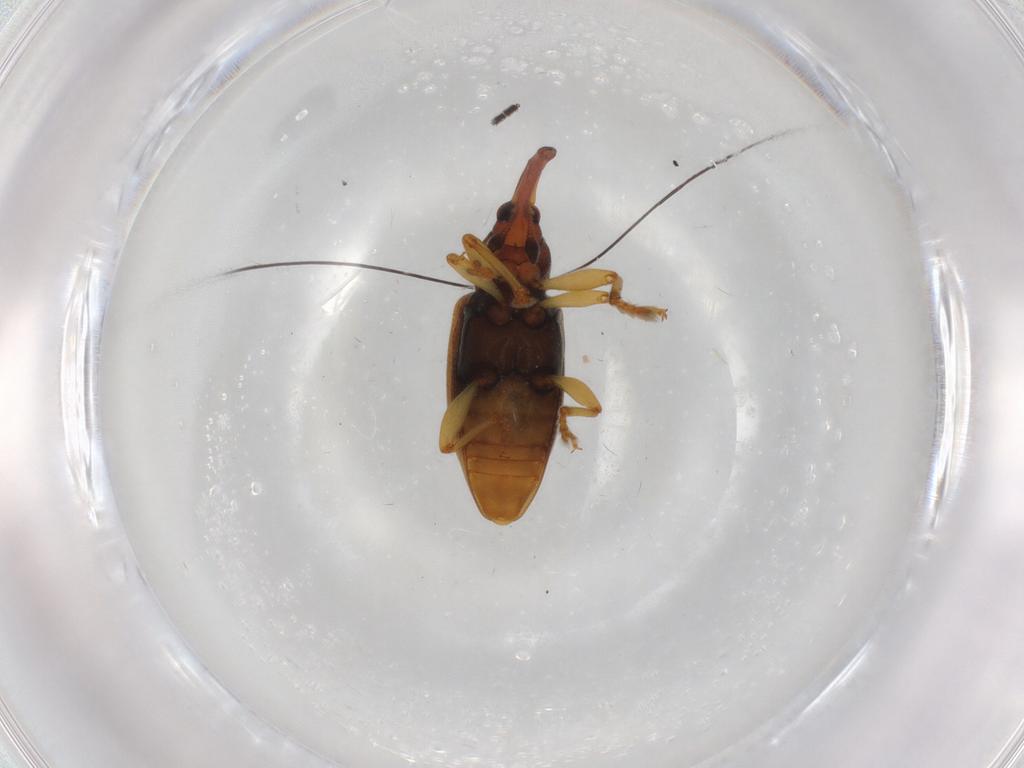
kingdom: Animalia
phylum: Arthropoda
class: Insecta
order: Coleoptera
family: Curculionidae
